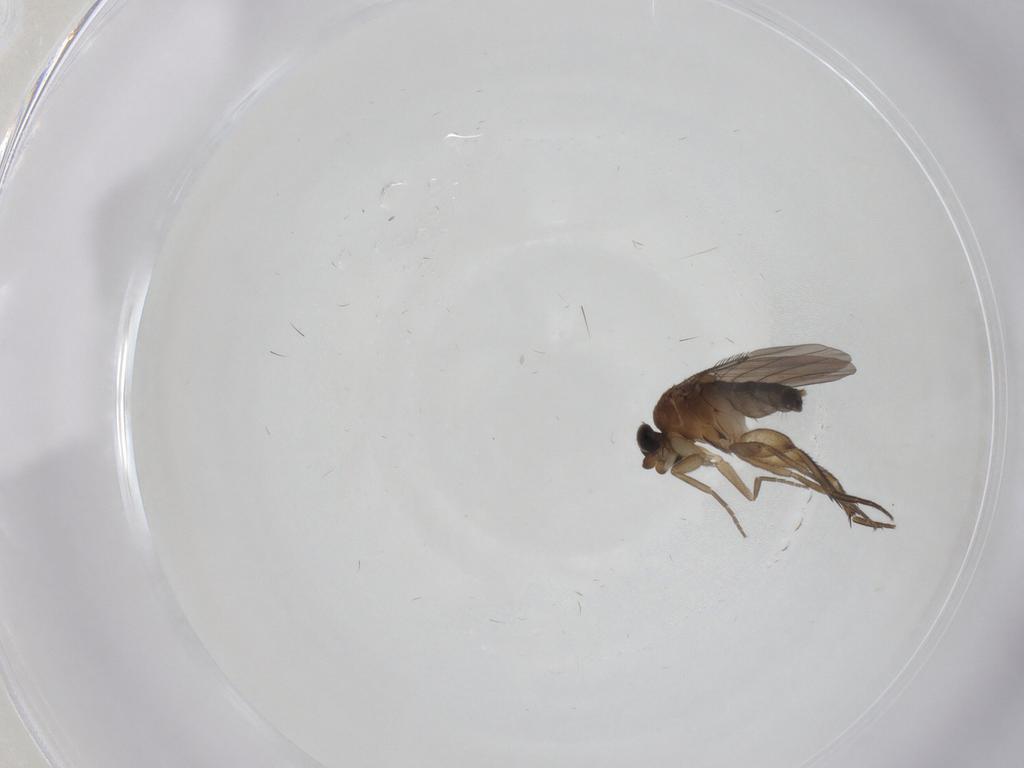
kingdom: Animalia
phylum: Arthropoda
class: Insecta
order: Diptera
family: Phoridae
